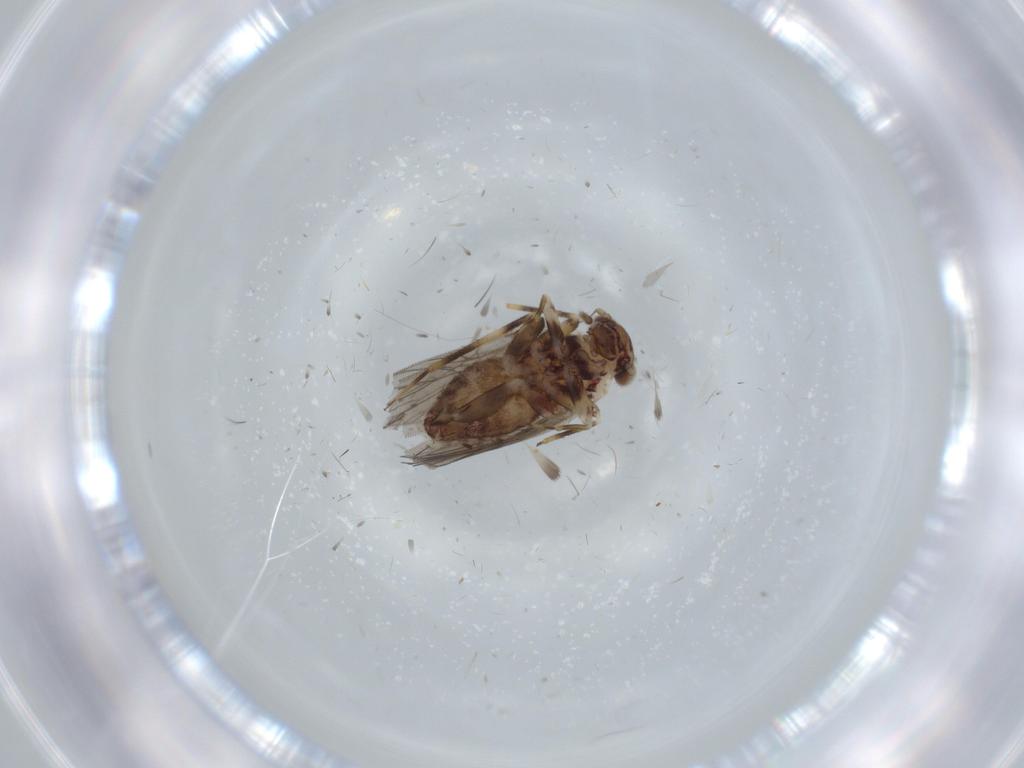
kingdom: Animalia
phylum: Arthropoda
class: Insecta
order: Psocodea
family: Lepidopsocidae
